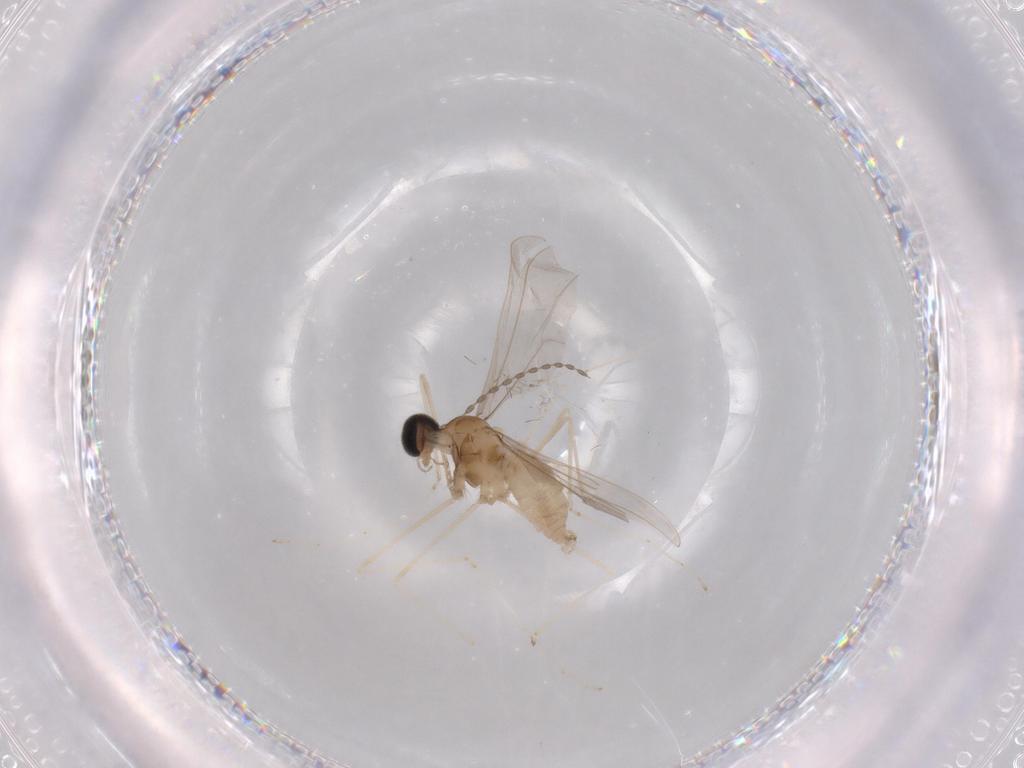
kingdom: Animalia
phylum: Arthropoda
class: Insecta
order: Diptera
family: Cecidomyiidae
